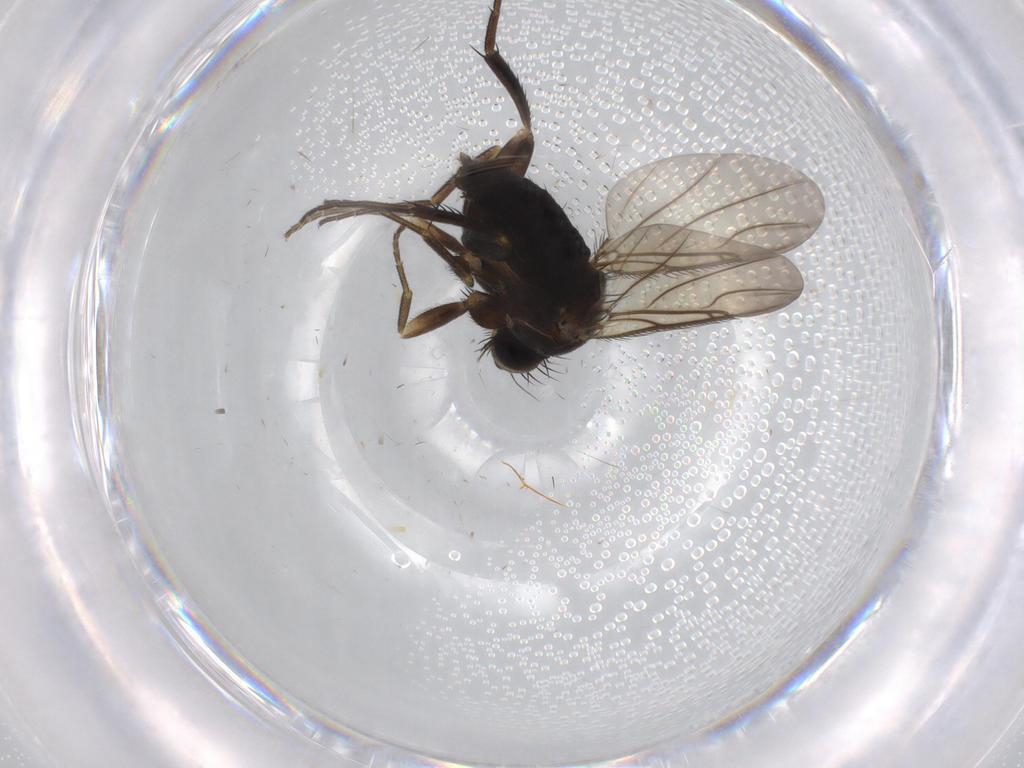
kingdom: Animalia
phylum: Arthropoda
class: Insecta
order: Diptera
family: Phoridae
